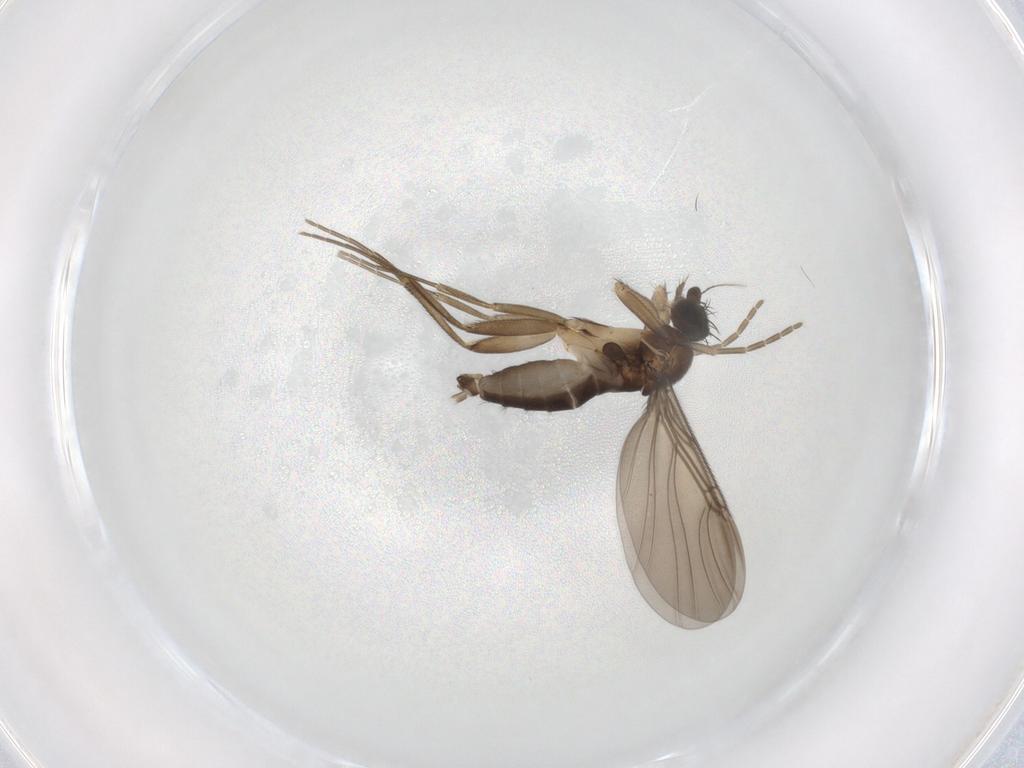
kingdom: Animalia
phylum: Arthropoda
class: Insecta
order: Diptera
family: Phoridae
